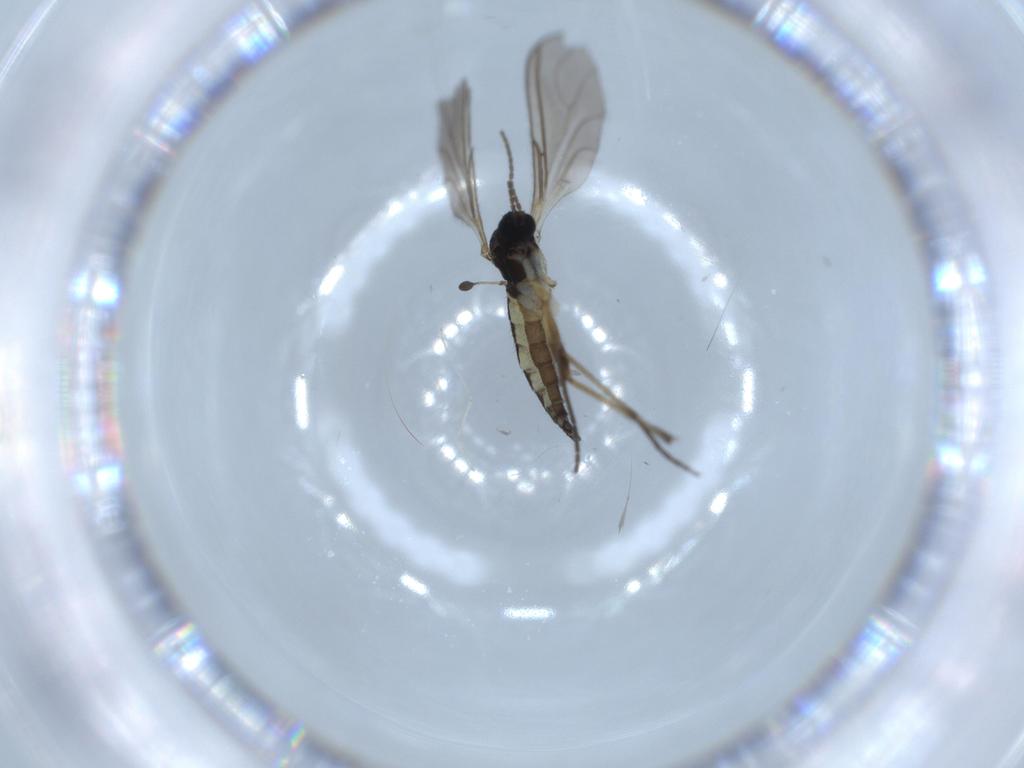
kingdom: Animalia
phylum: Arthropoda
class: Insecta
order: Diptera
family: Sciaridae
